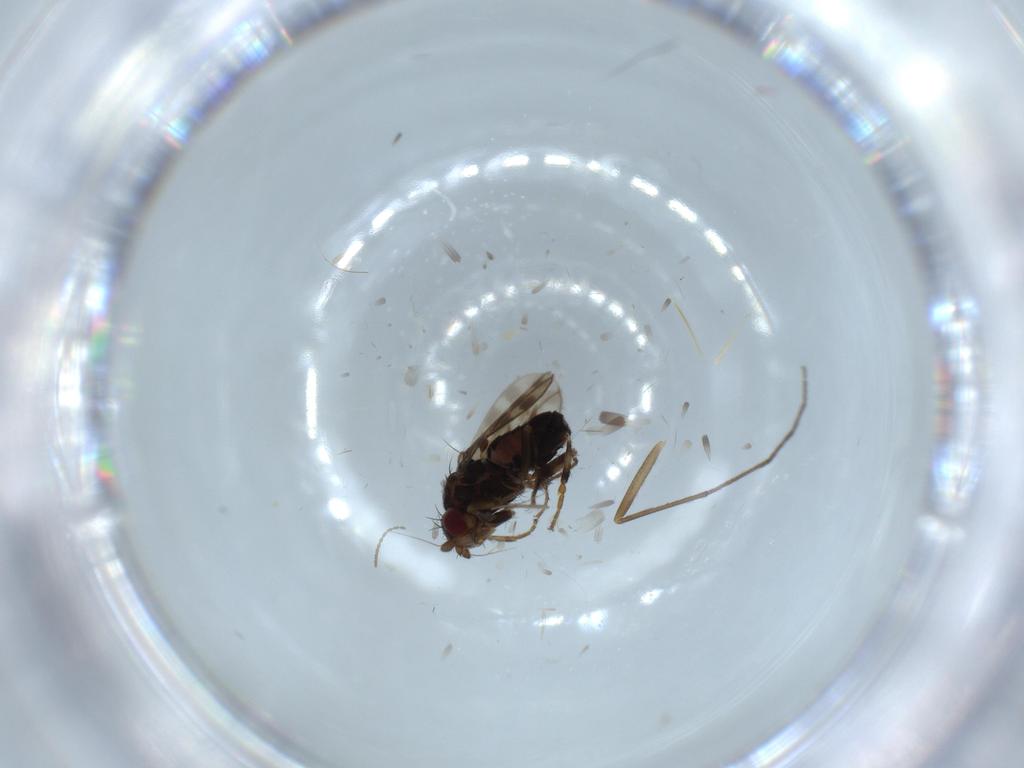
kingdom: Animalia
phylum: Arthropoda
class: Insecta
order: Diptera
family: Sphaeroceridae
